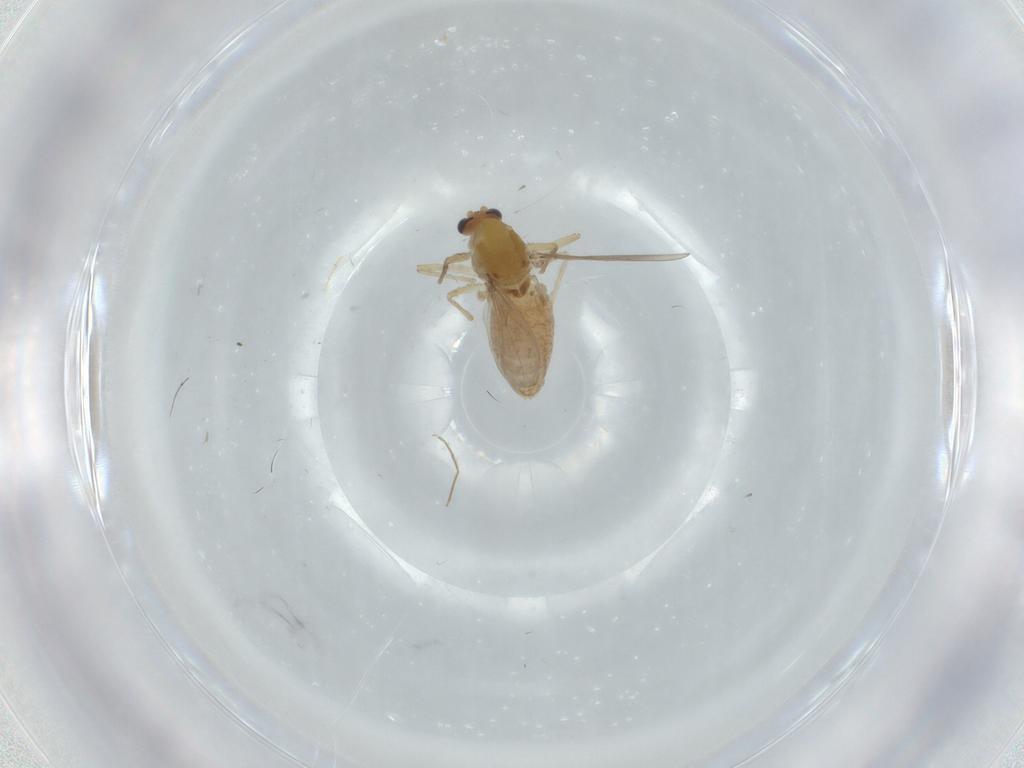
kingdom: Animalia
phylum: Arthropoda
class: Insecta
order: Diptera
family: Chironomidae
